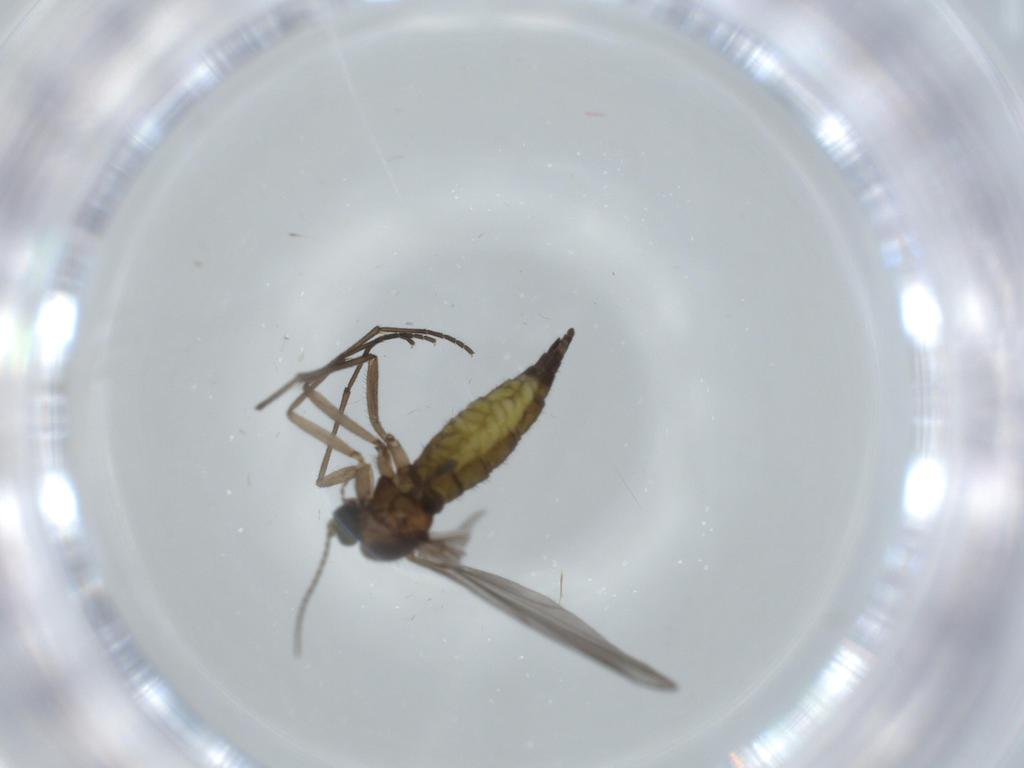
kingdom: Animalia
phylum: Arthropoda
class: Insecta
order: Diptera
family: Sciaridae
